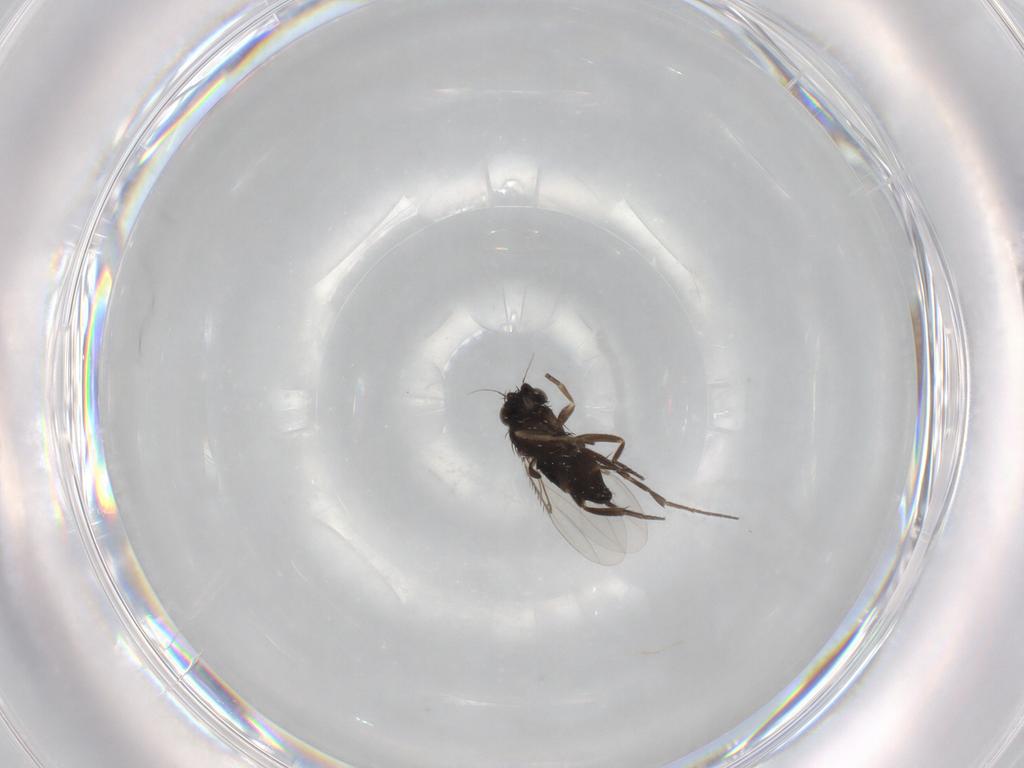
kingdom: Animalia
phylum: Arthropoda
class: Insecta
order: Diptera
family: Phoridae
